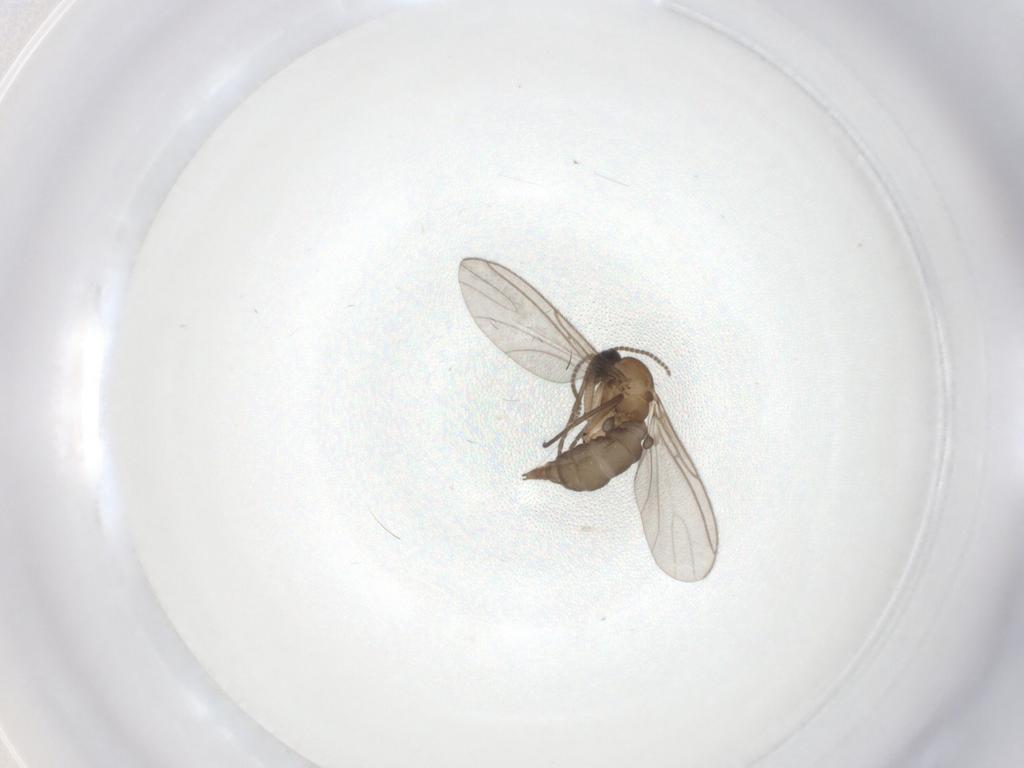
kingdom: Animalia
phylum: Arthropoda
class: Insecta
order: Diptera
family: Sciaridae
